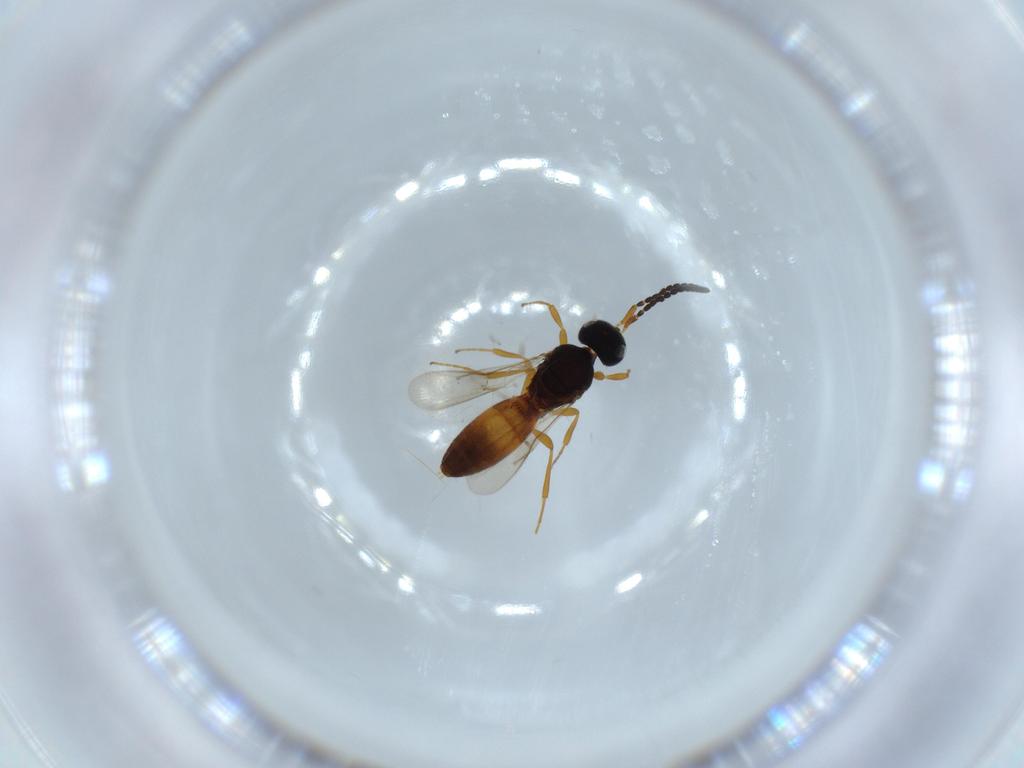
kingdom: Animalia
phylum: Arthropoda
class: Insecta
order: Hymenoptera
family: Scelionidae
